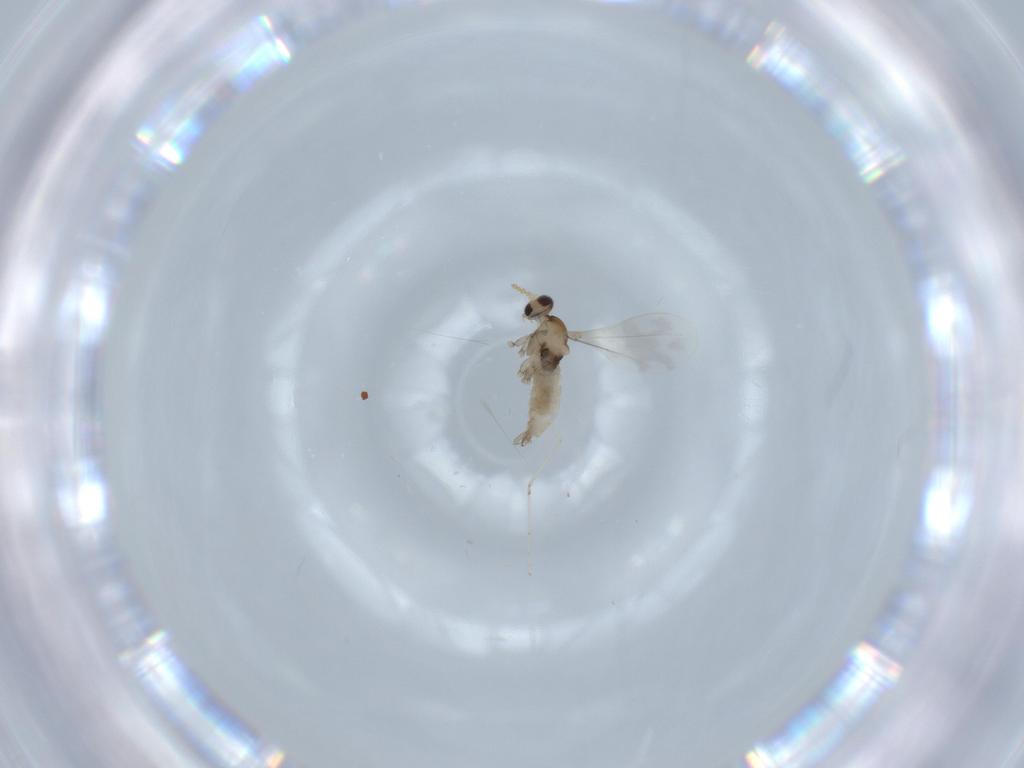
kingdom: Animalia
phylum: Arthropoda
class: Insecta
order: Diptera
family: Cecidomyiidae
